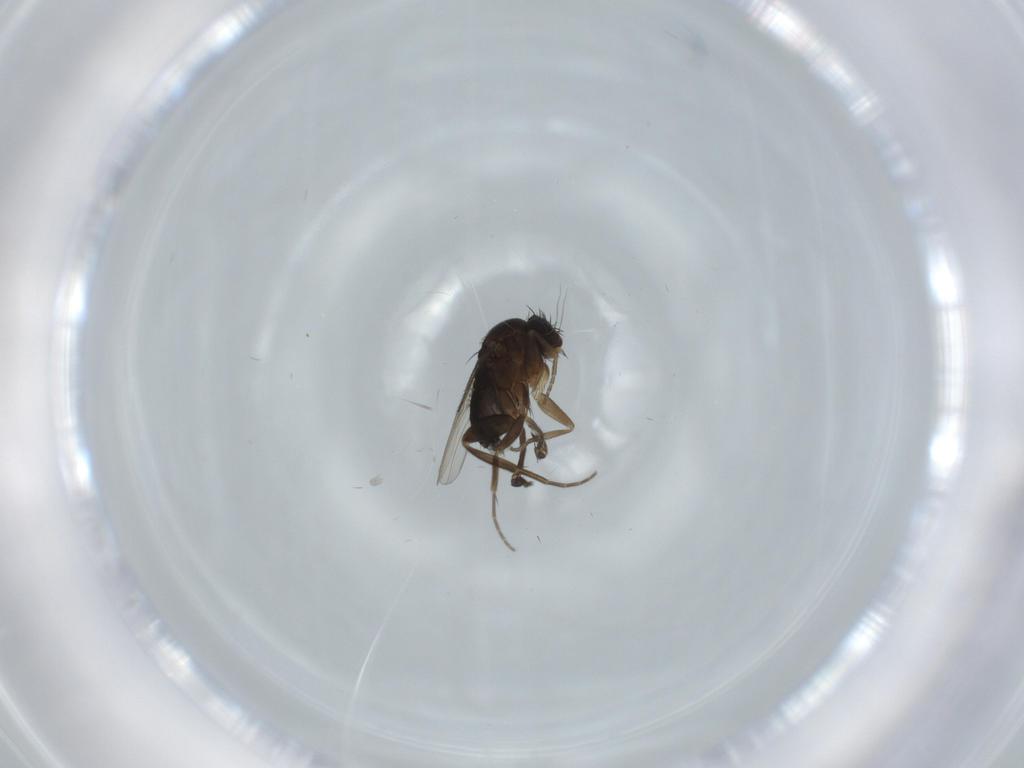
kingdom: Animalia
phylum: Arthropoda
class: Insecta
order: Diptera
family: Phoridae
